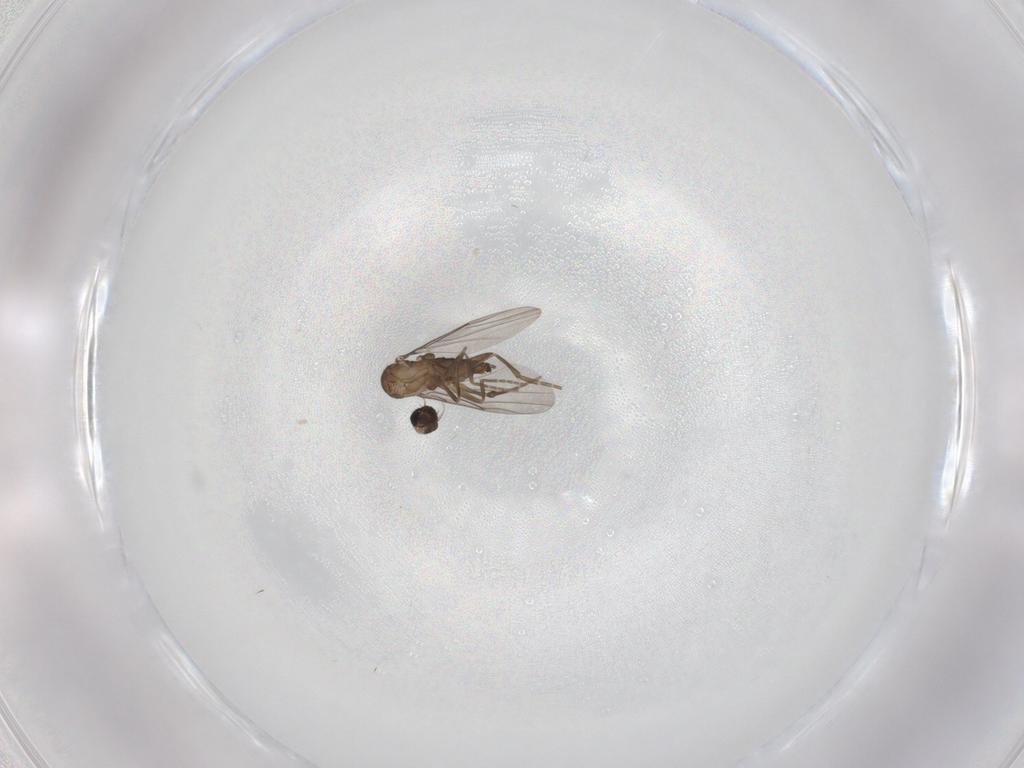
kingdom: Animalia
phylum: Arthropoda
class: Insecta
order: Diptera
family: Phoridae
